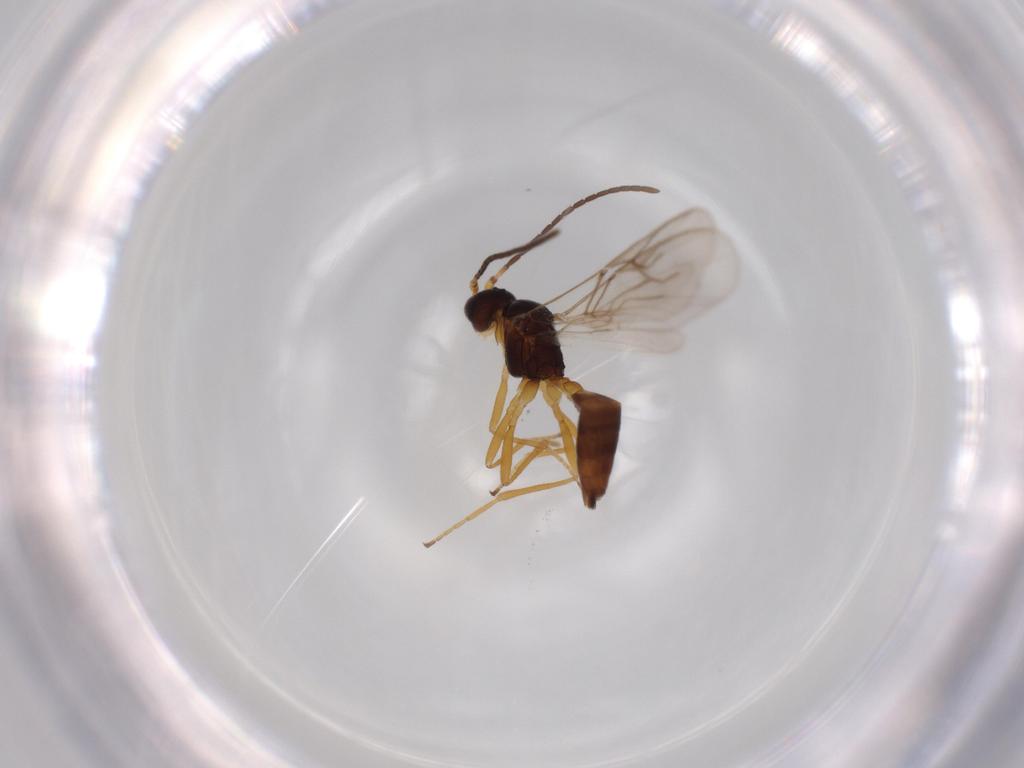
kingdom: Animalia
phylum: Arthropoda
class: Insecta
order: Hymenoptera
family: Braconidae
